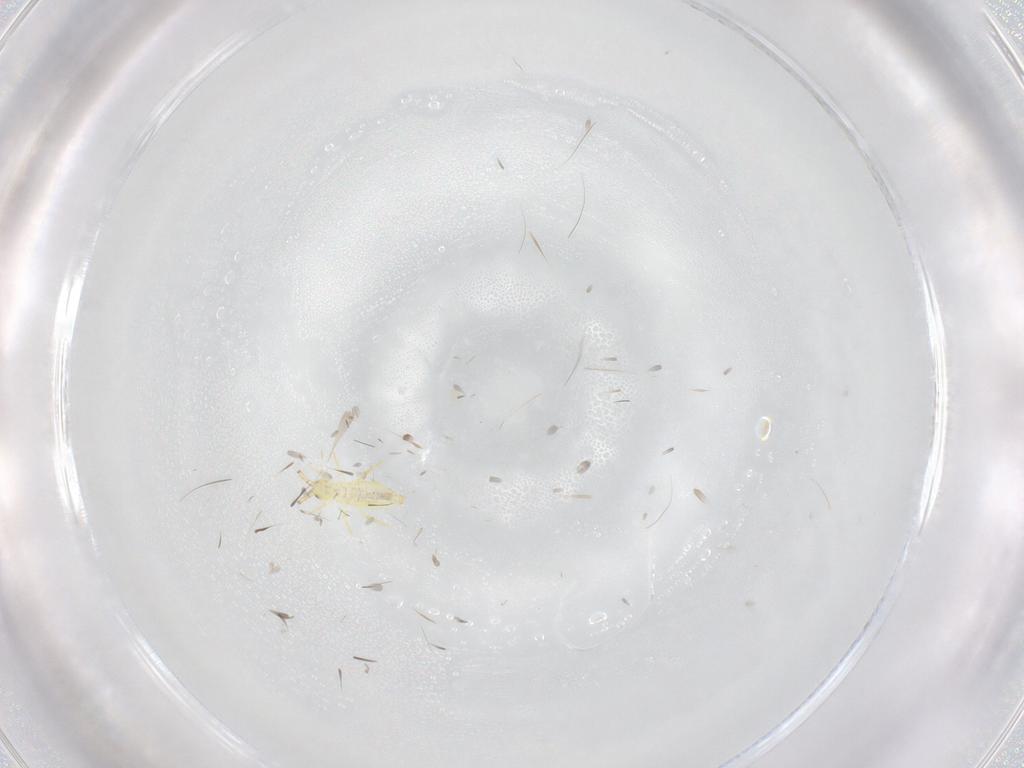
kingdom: Animalia
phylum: Arthropoda
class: Collembola
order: Entomobryomorpha
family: Paronellidae
